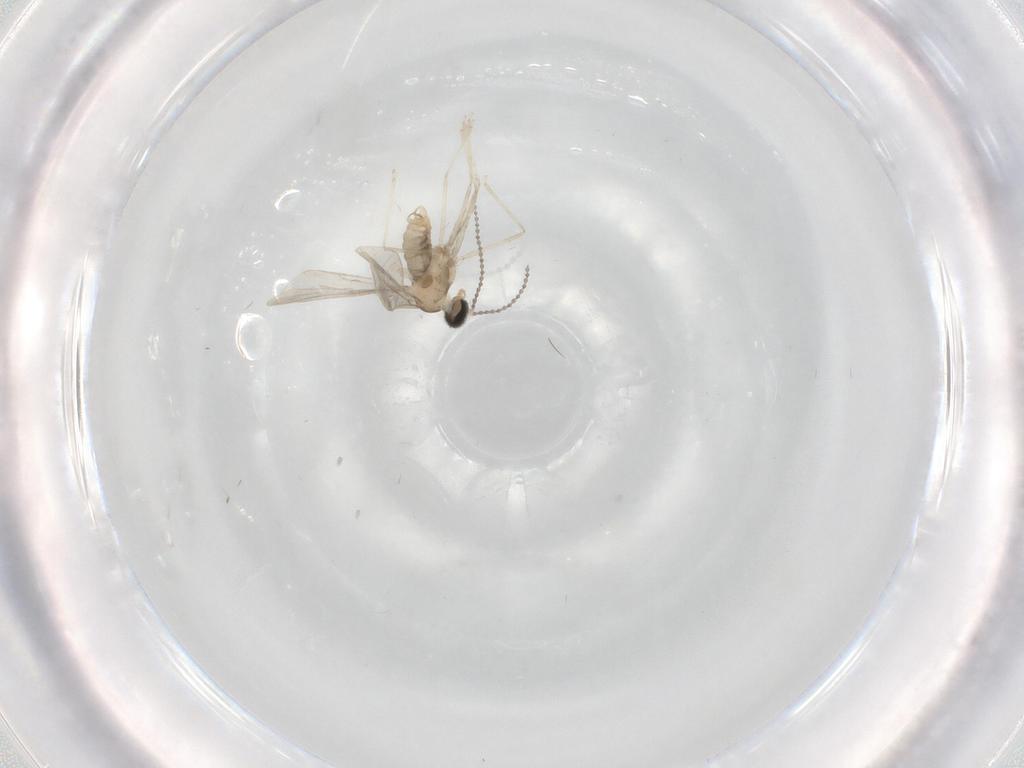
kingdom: Animalia
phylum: Arthropoda
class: Insecta
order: Diptera
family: Cecidomyiidae
